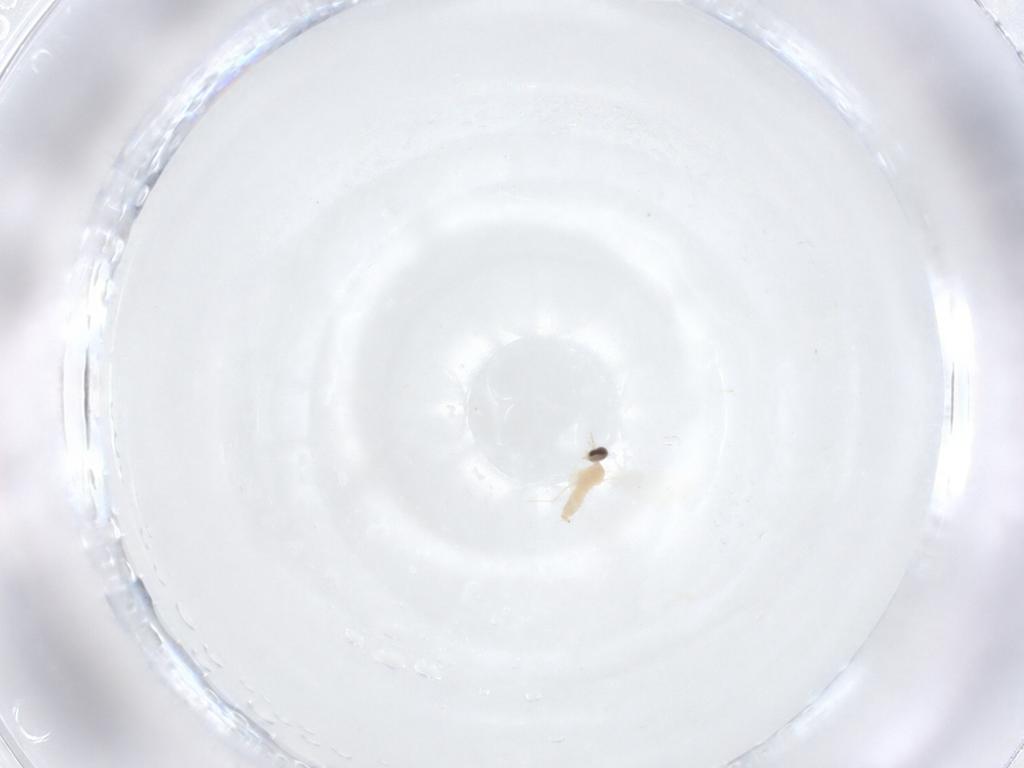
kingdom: Animalia
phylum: Arthropoda
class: Insecta
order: Diptera
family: Cecidomyiidae
